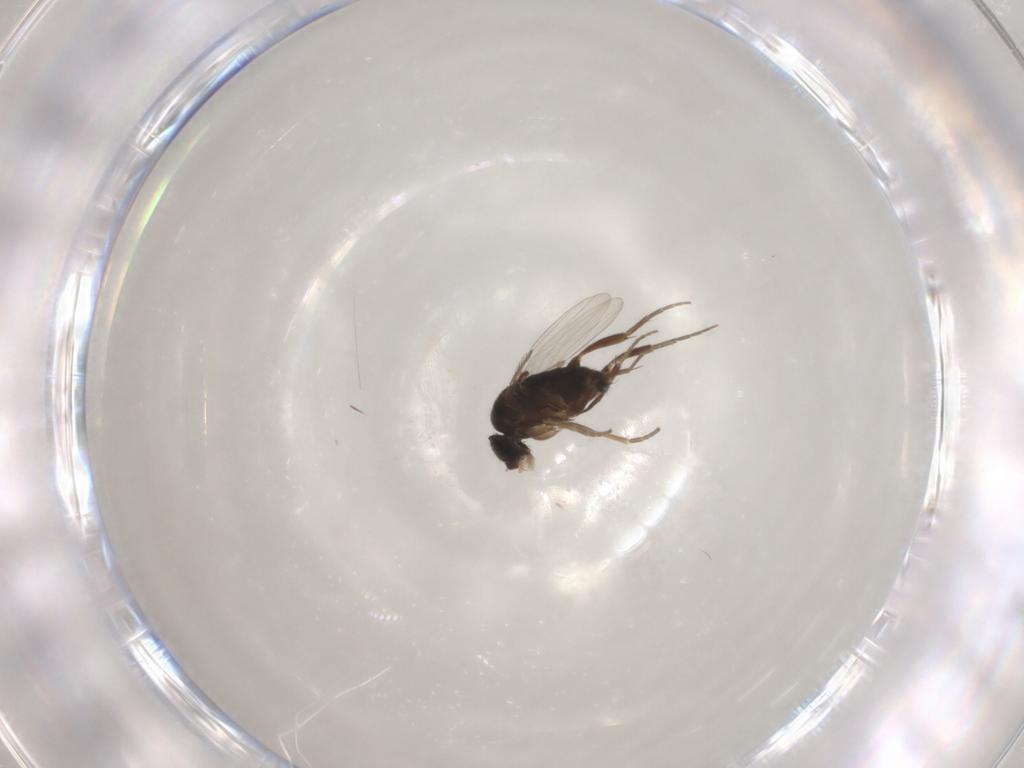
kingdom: Animalia
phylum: Arthropoda
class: Insecta
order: Diptera
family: Phoridae
